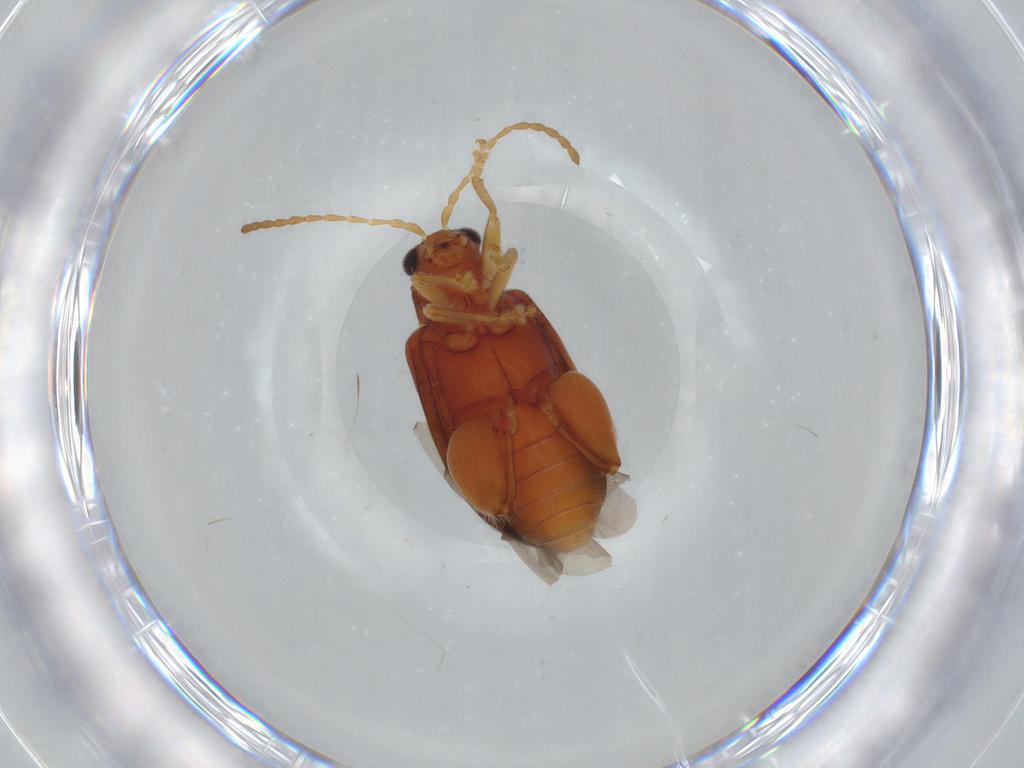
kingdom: Animalia
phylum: Arthropoda
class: Insecta
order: Coleoptera
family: Chrysomelidae
